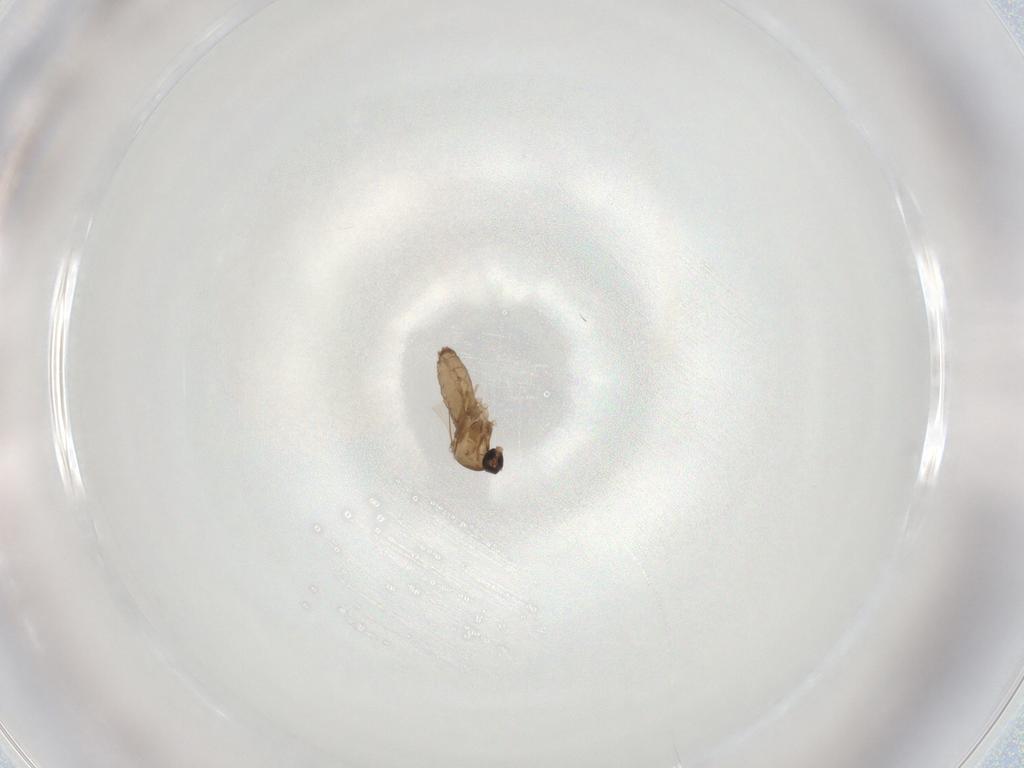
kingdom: Animalia
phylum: Arthropoda
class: Insecta
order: Diptera
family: Cecidomyiidae
